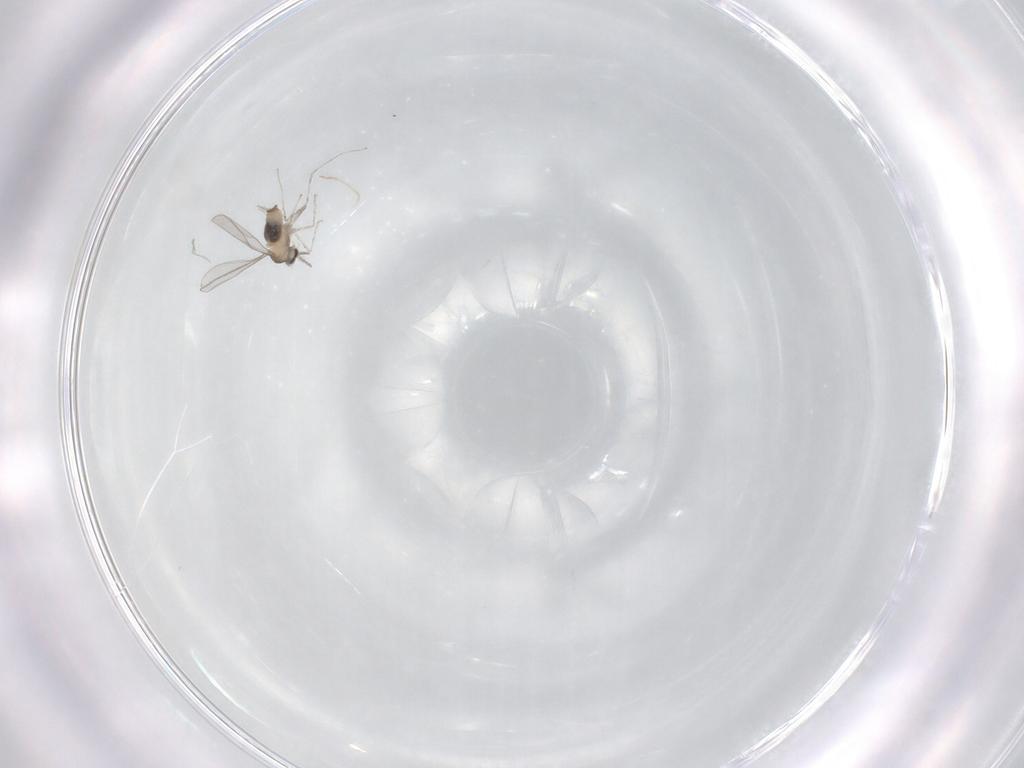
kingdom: Animalia
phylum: Arthropoda
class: Insecta
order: Diptera
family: Cecidomyiidae
